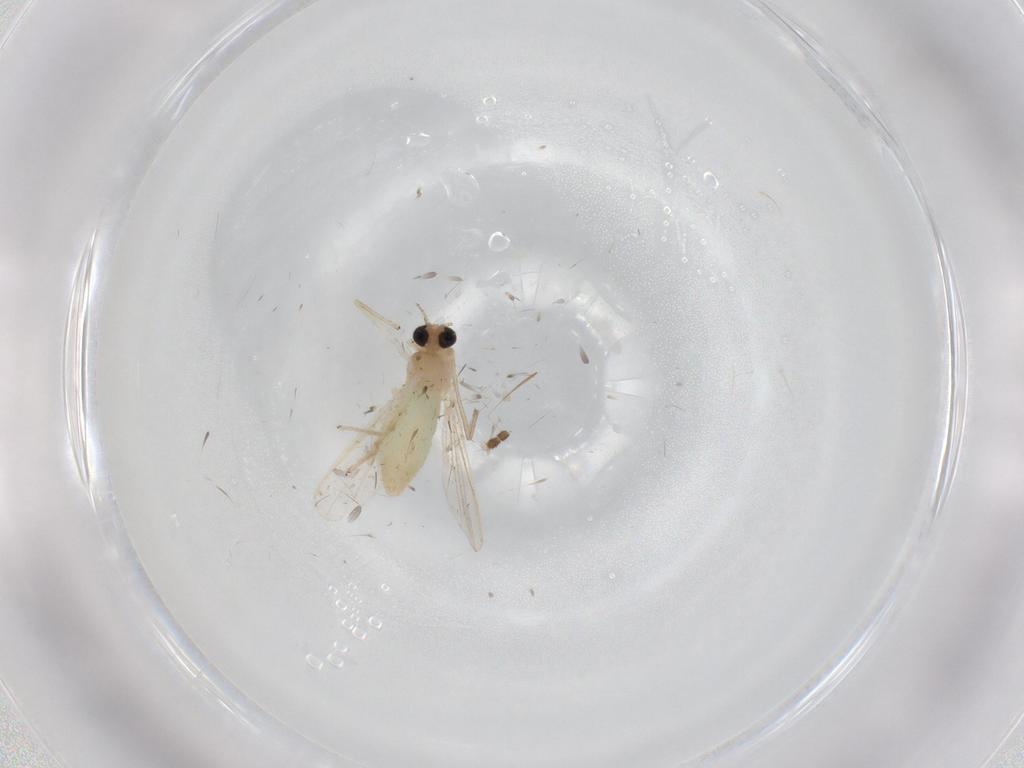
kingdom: Animalia
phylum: Arthropoda
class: Insecta
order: Diptera
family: Chironomidae
